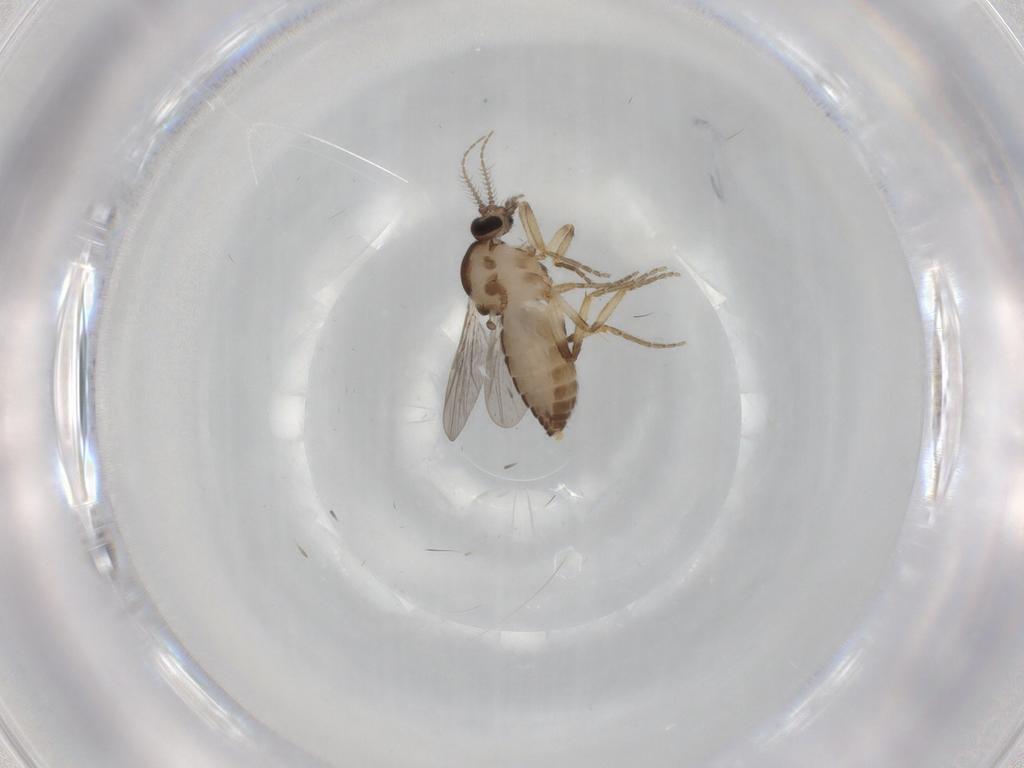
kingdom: Animalia
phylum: Arthropoda
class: Insecta
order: Diptera
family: Ceratopogonidae
